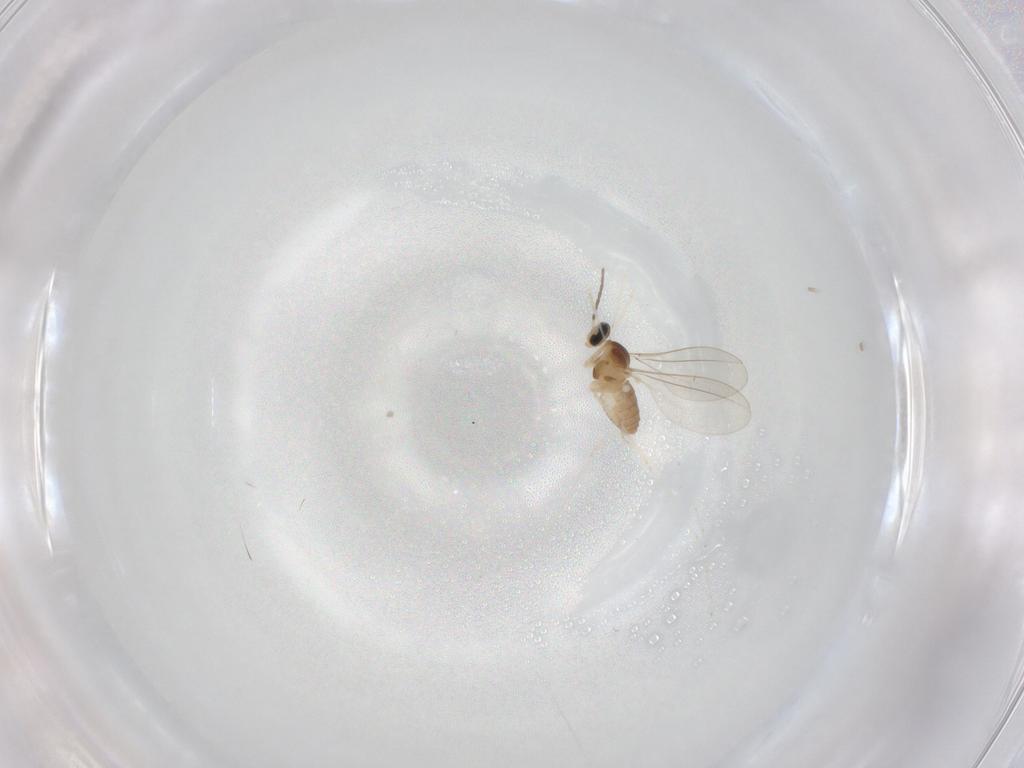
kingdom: Animalia
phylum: Arthropoda
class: Insecta
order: Diptera
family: Cecidomyiidae
